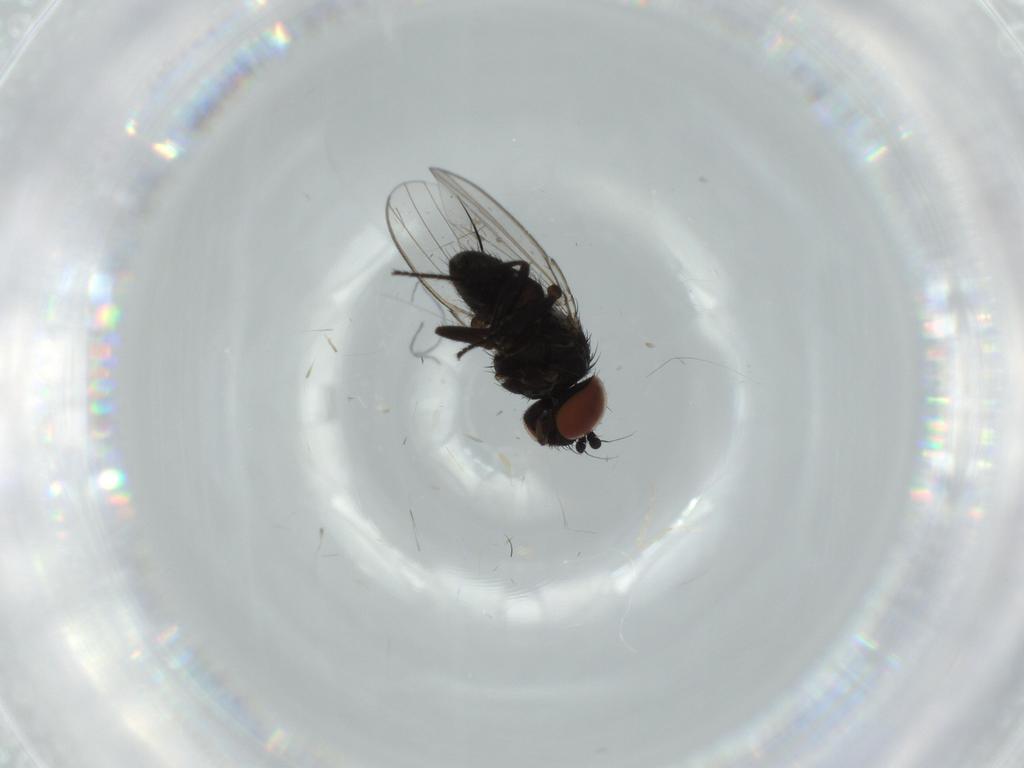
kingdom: Animalia
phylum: Arthropoda
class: Insecta
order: Diptera
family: Milichiidae
